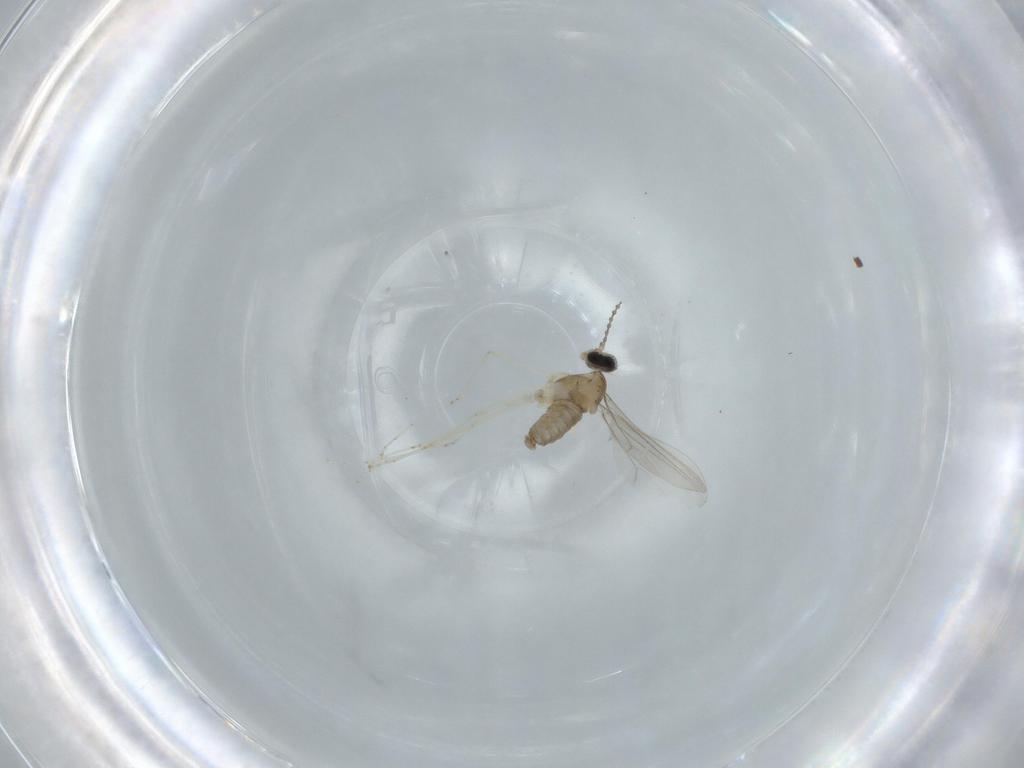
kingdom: Animalia
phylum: Arthropoda
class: Insecta
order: Diptera
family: Cecidomyiidae
